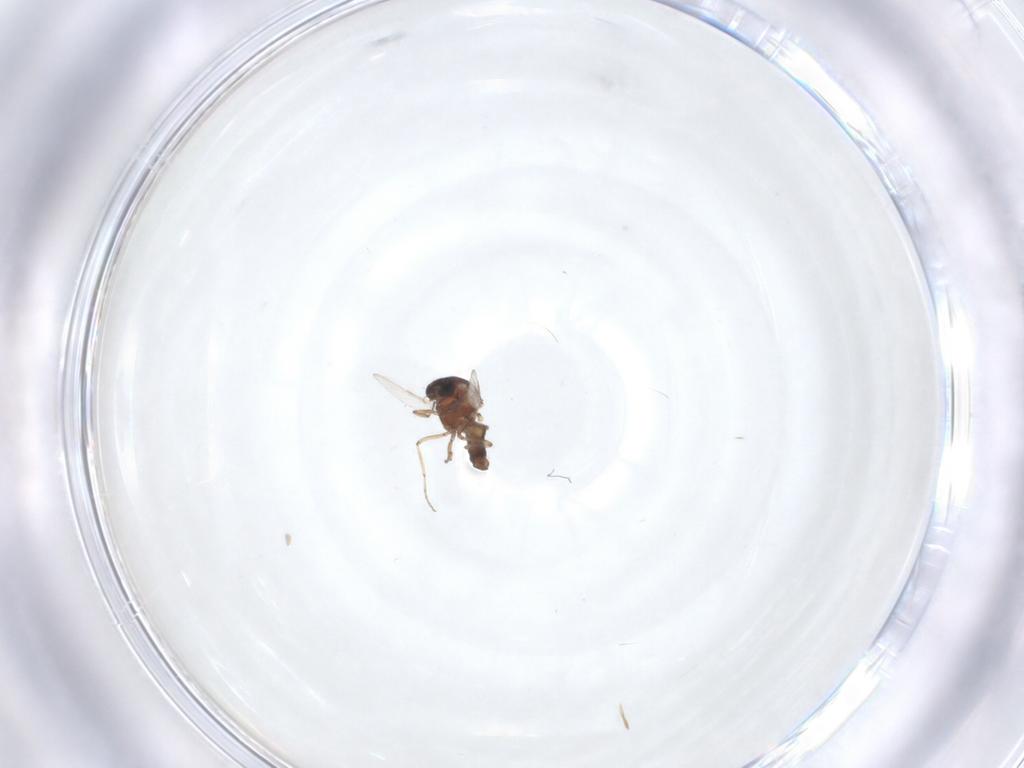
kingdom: Animalia
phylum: Arthropoda
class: Insecta
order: Diptera
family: Ceratopogonidae
